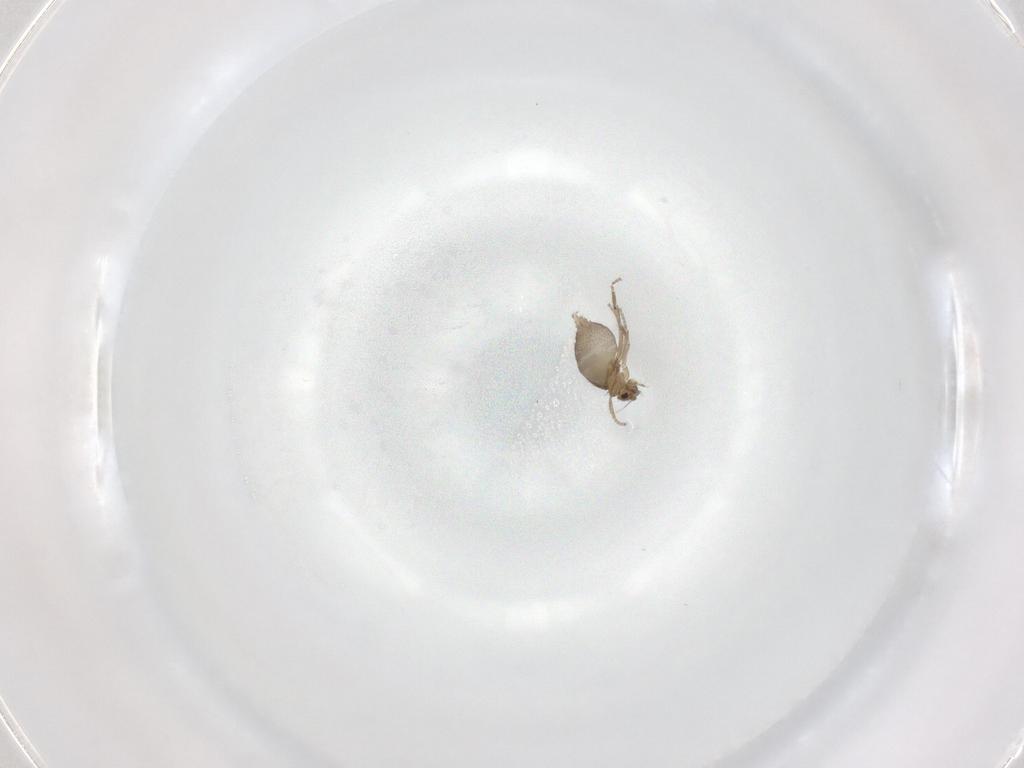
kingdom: Animalia
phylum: Arthropoda
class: Insecta
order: Diptera
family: Phoridae
